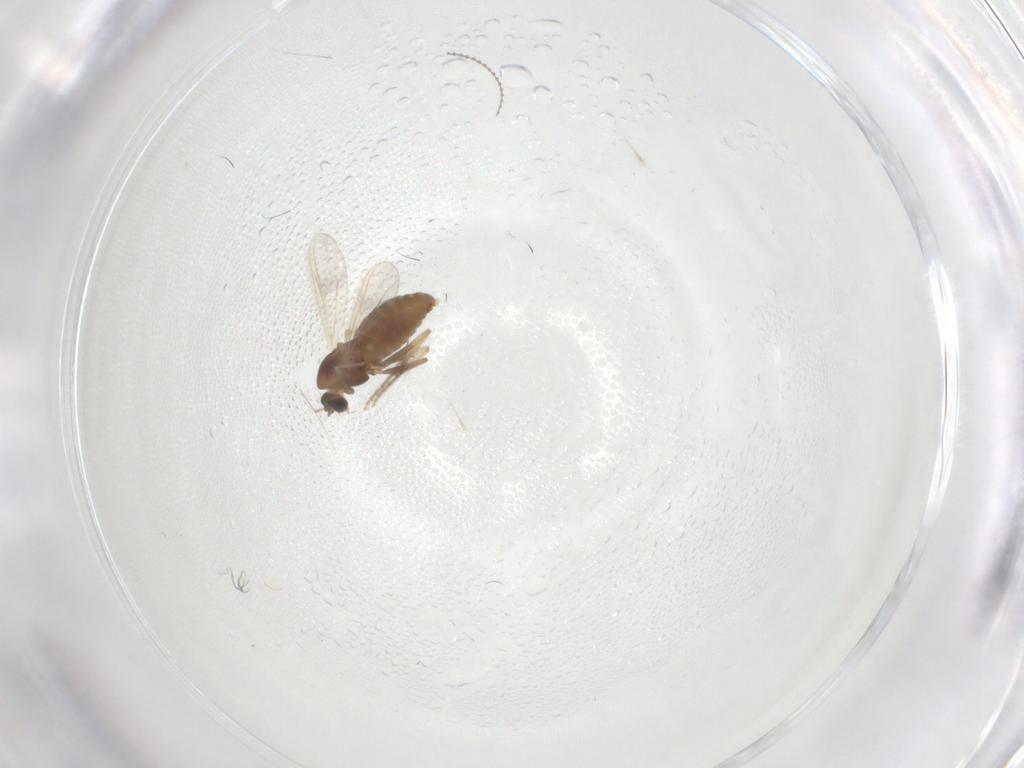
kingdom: Animalia
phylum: Arthropoda
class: Insecta
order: Diptera
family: Chironomidae
